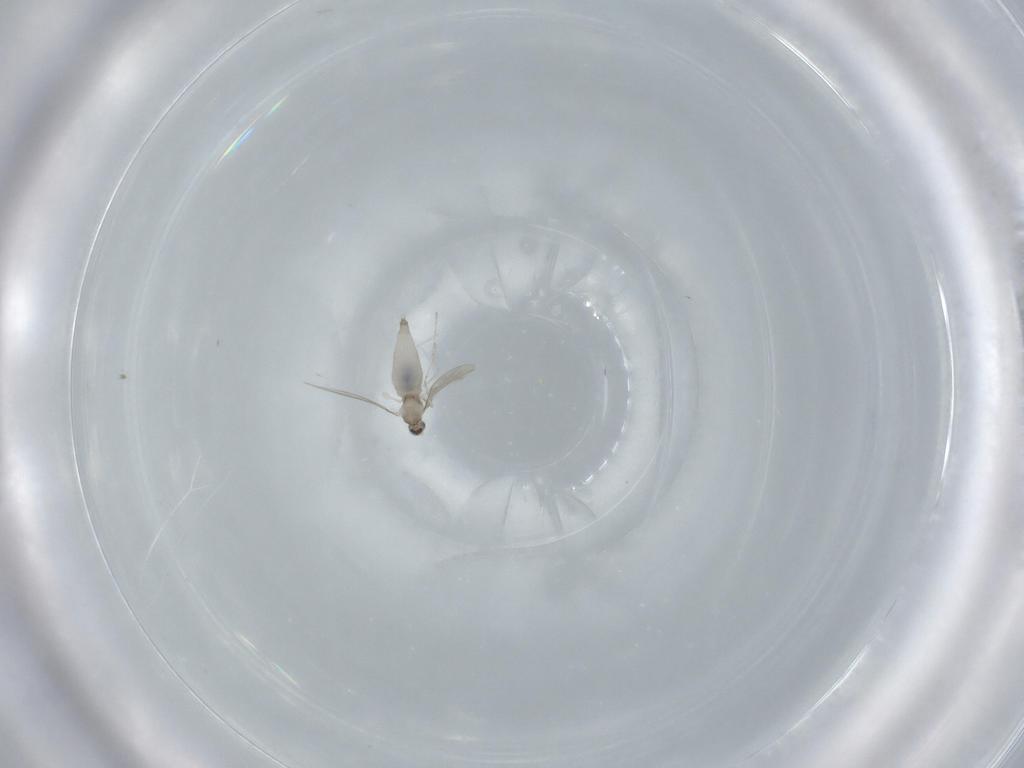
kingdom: Animalia
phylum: Arthropoda
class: Insecta
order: Diptera
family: Cecidomyiidae
